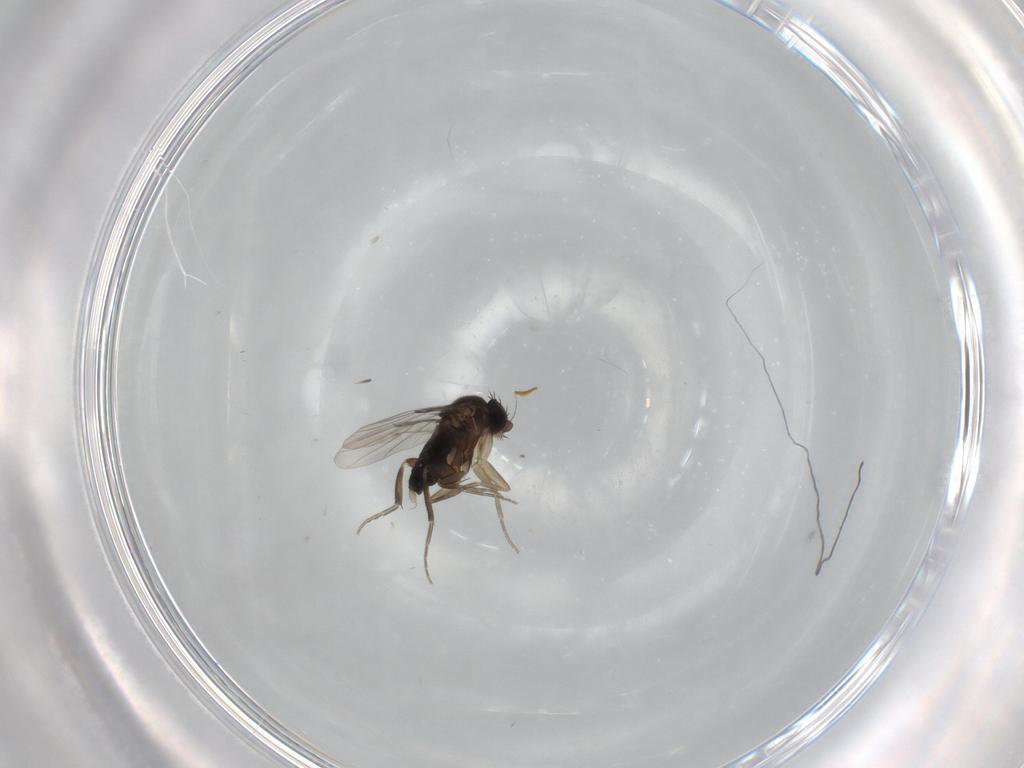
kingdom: Animalia
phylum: Arthropoda
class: Insecta
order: Diptera
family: Phoridae
